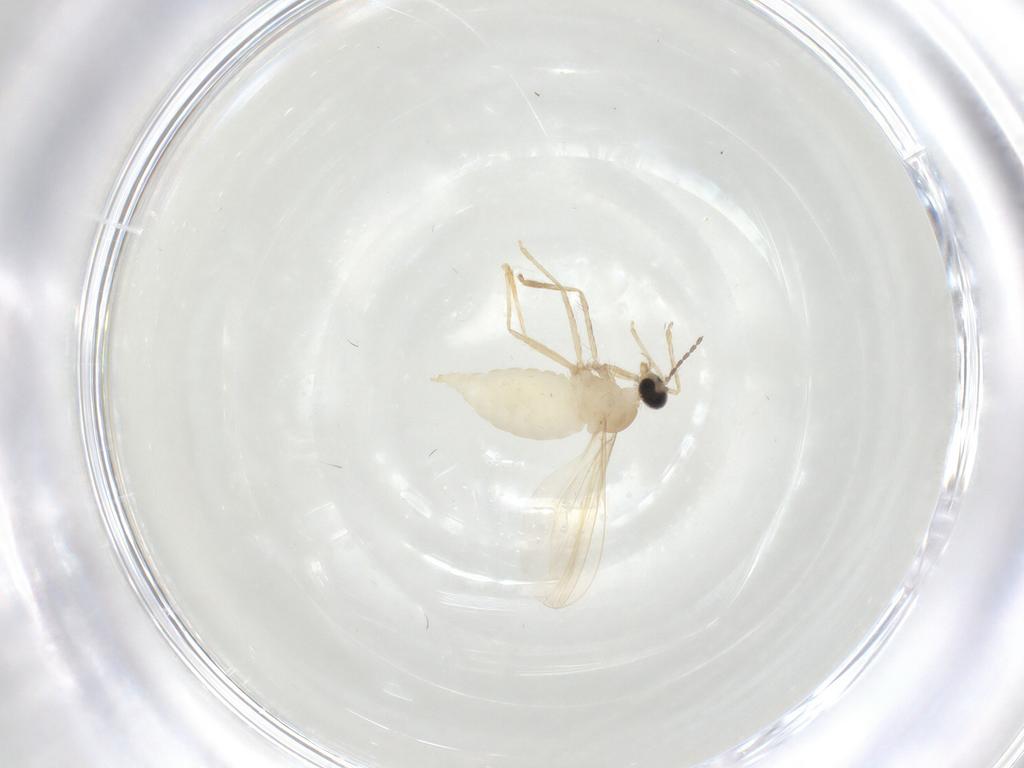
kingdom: Animalia
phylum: Arthropoda
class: Insecta
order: Diptera
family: Cecidomyiidae
